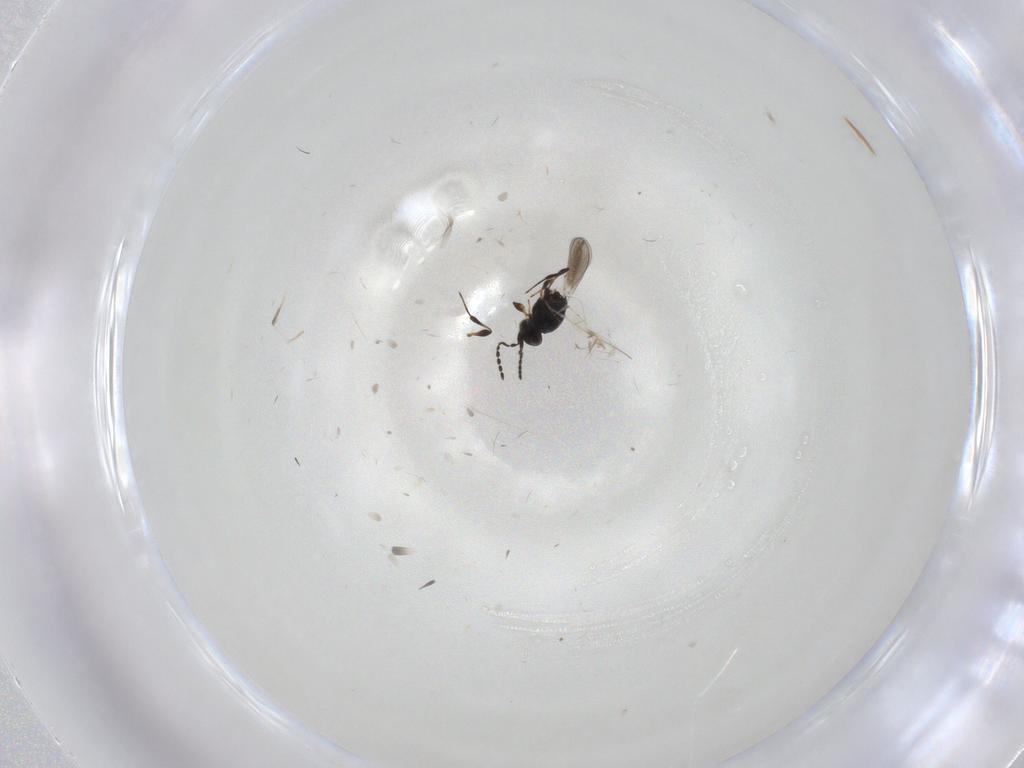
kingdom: Animalia
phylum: Arthropoda
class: Insecta
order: Hymenoptera
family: Platygastridae
